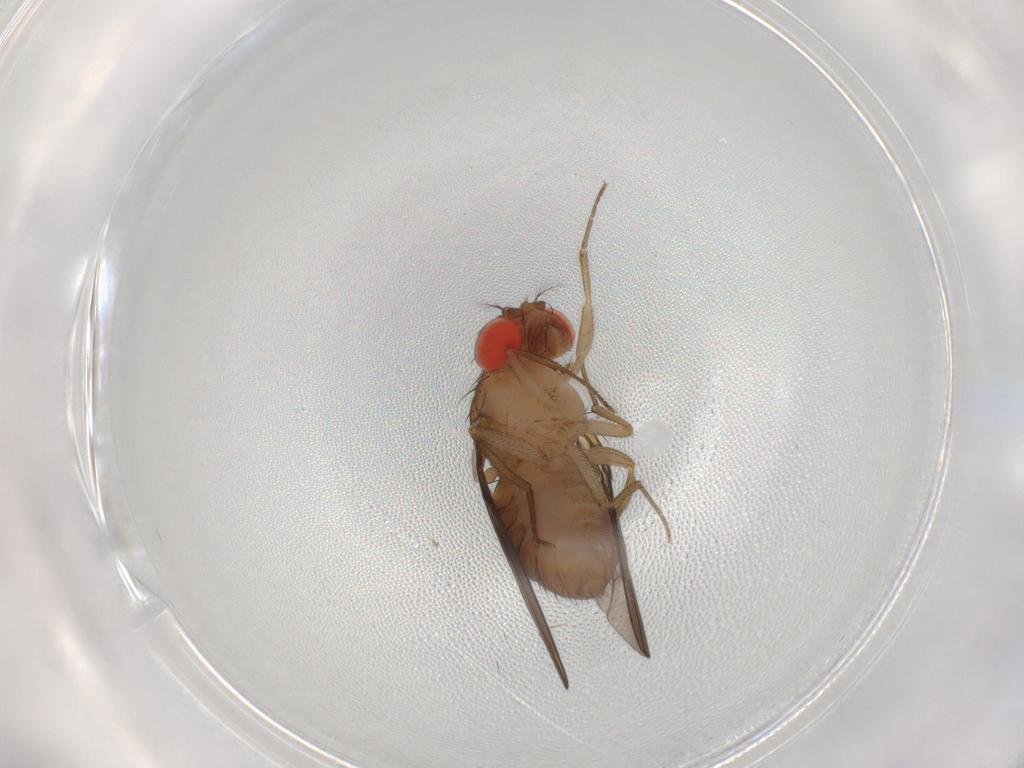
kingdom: Animalia
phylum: Arthropoda
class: Insecta
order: Diptera
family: Drosophilidae
